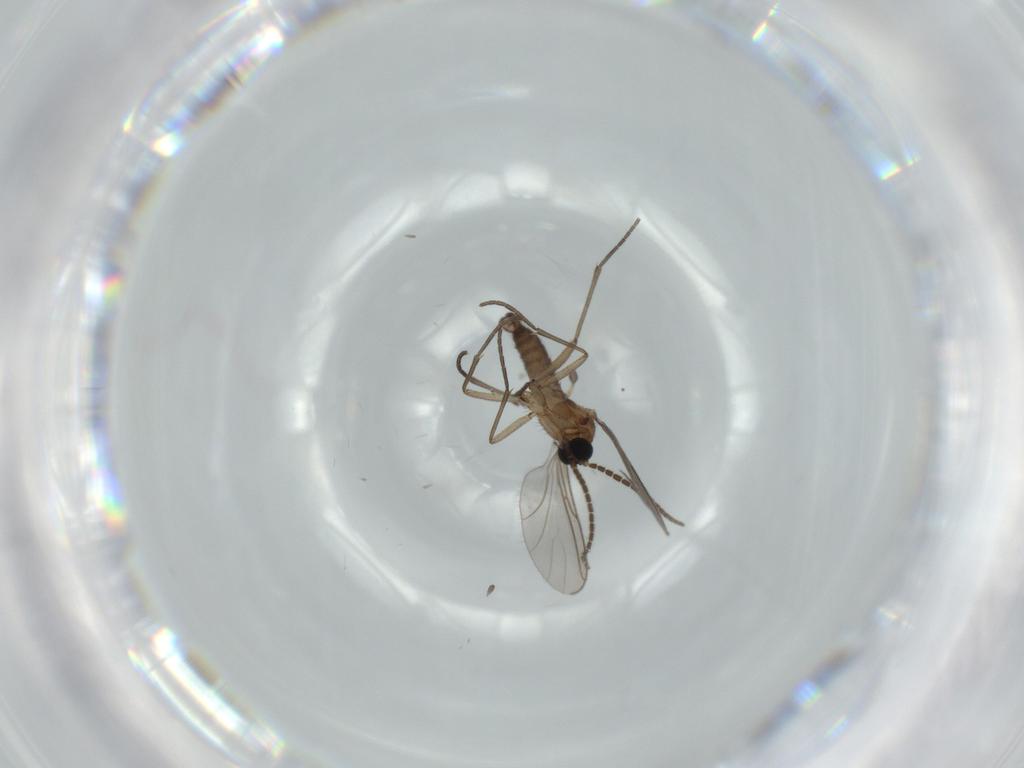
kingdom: Animalia
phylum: Arthropoda
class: Insecta
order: Diptera
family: Sciaridae
